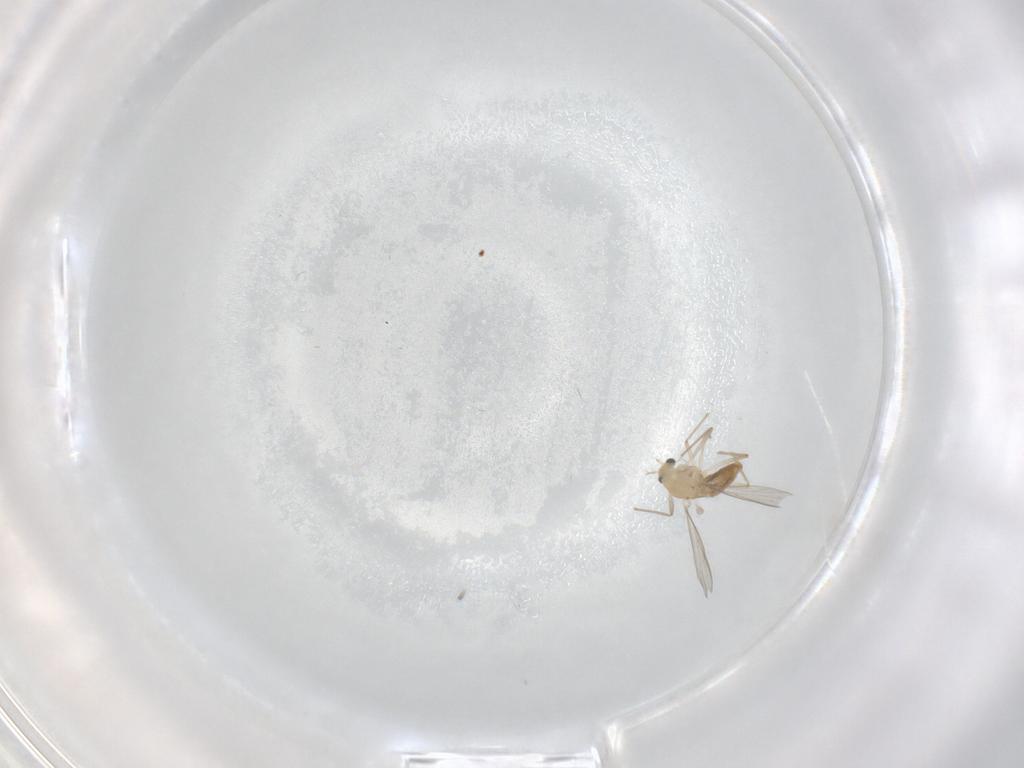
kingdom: Animalia
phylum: Arthropoda
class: Insecta
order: Diptera
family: Chironomidae
